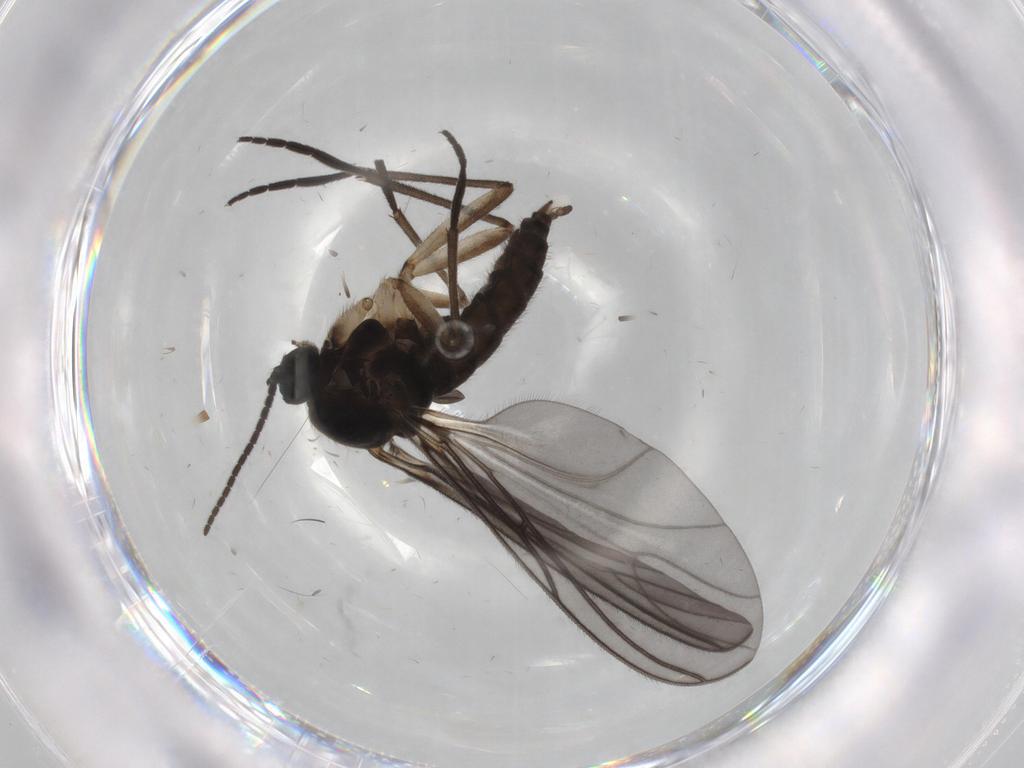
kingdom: Animalia
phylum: Arthropoda
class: Insecta
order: Diptera
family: Sciaridae
